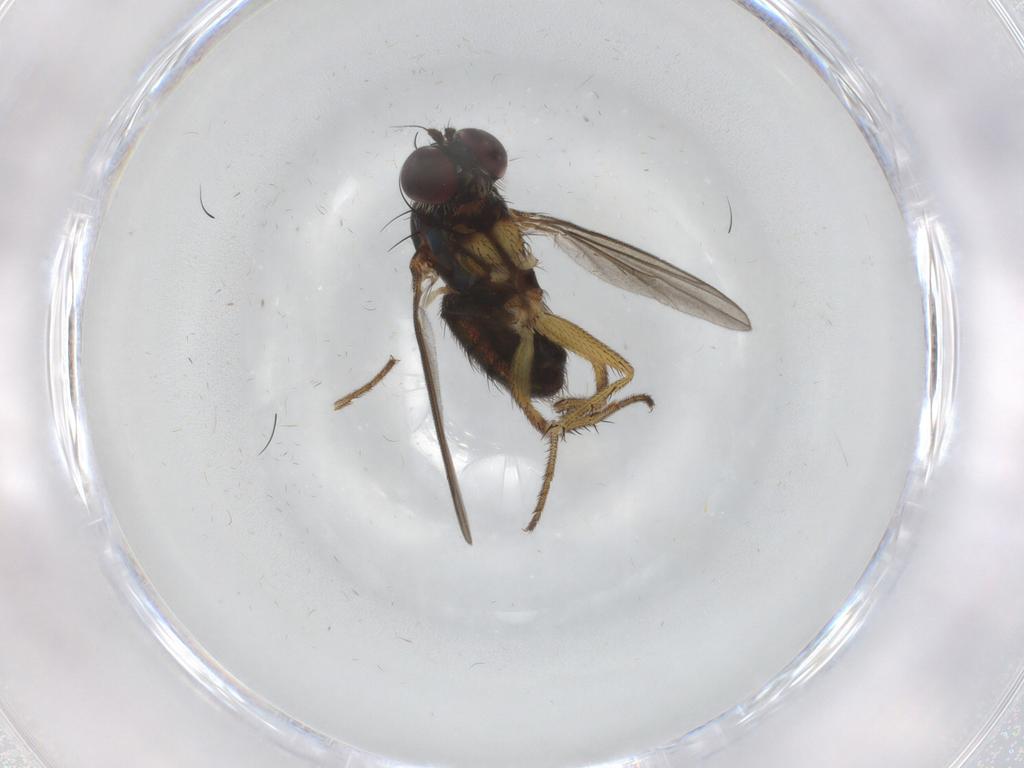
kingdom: Animalia
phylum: Arthropoda
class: Insecta
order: Diptera
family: Dolichopodidae
